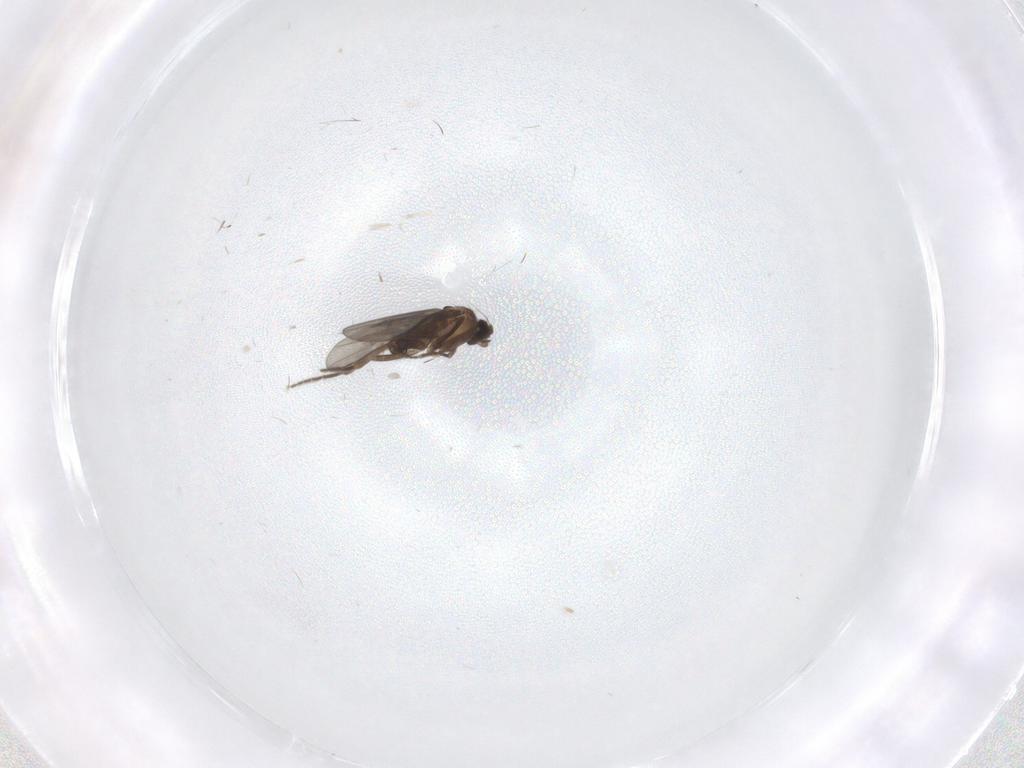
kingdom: Animalia
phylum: Arthropoda
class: Insecta
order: Diptera
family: Phoridae
